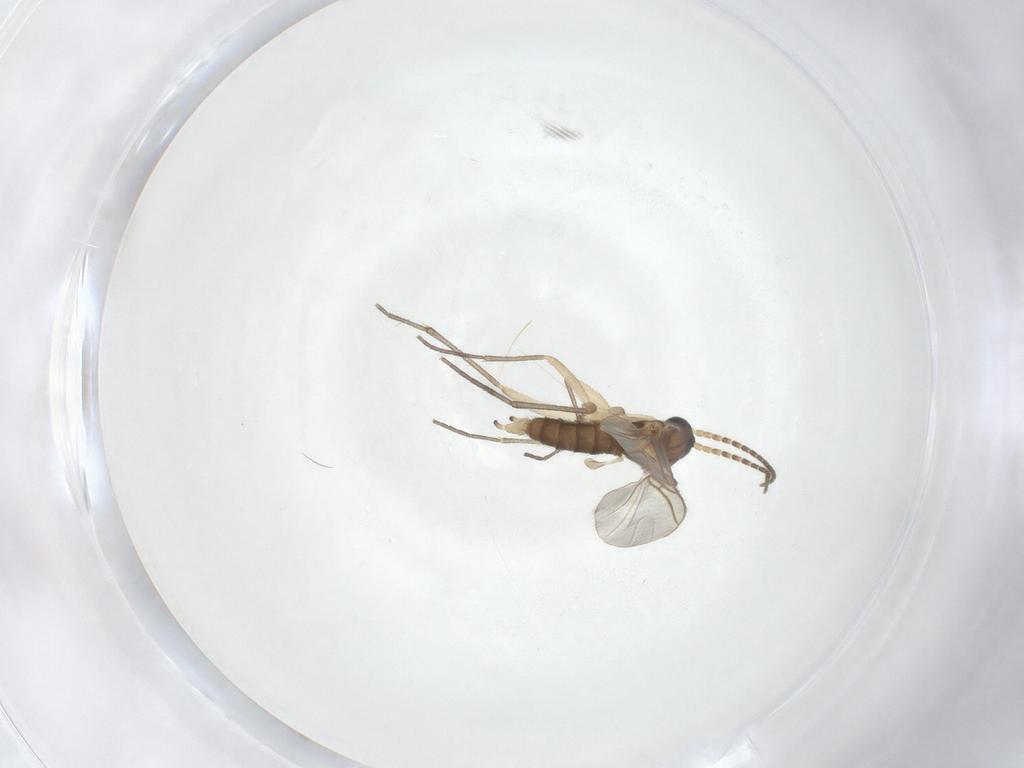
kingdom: Animalia
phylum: Arthropoda
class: Insecta
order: Diptera
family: Sciaridae
